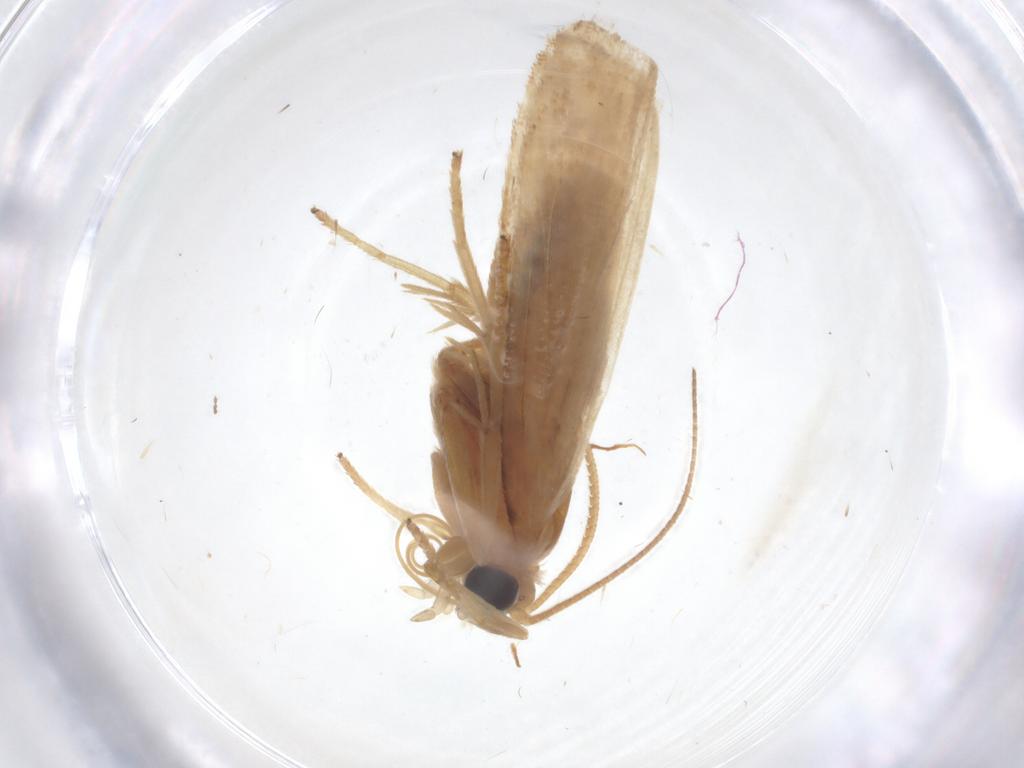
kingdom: Animalia
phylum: Arthropoda
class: Insecta
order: Lepidoptera
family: Pyralidae
